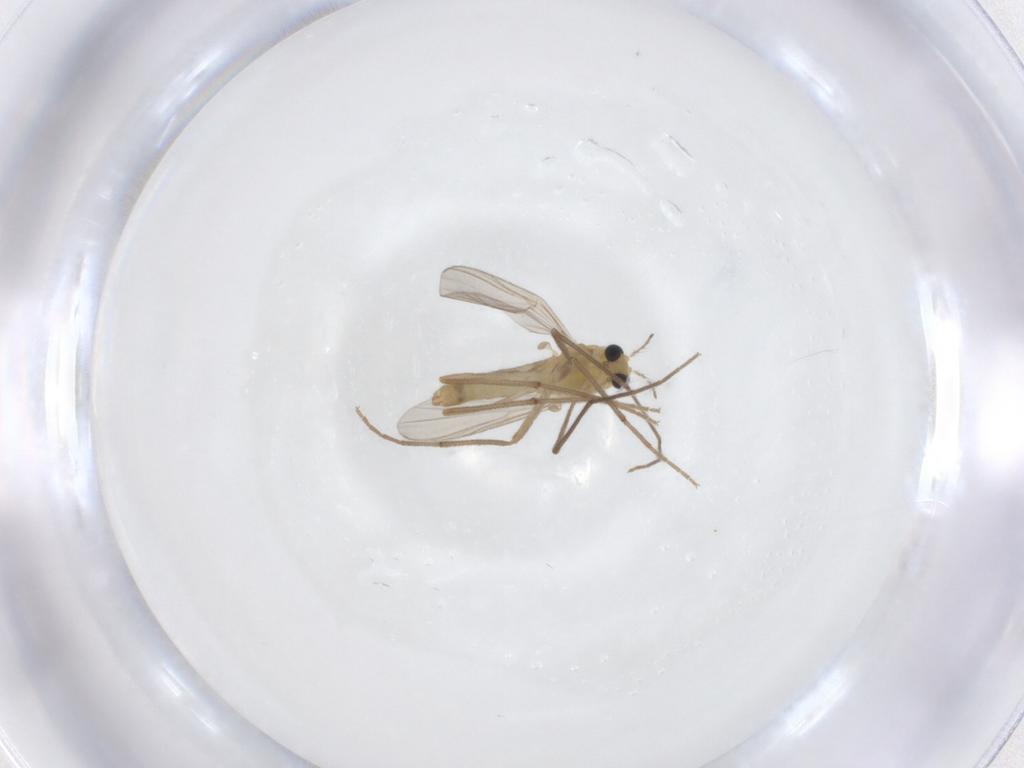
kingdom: Animalia
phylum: Arthropoda
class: Insecta
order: Diptera
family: Chironomidae
